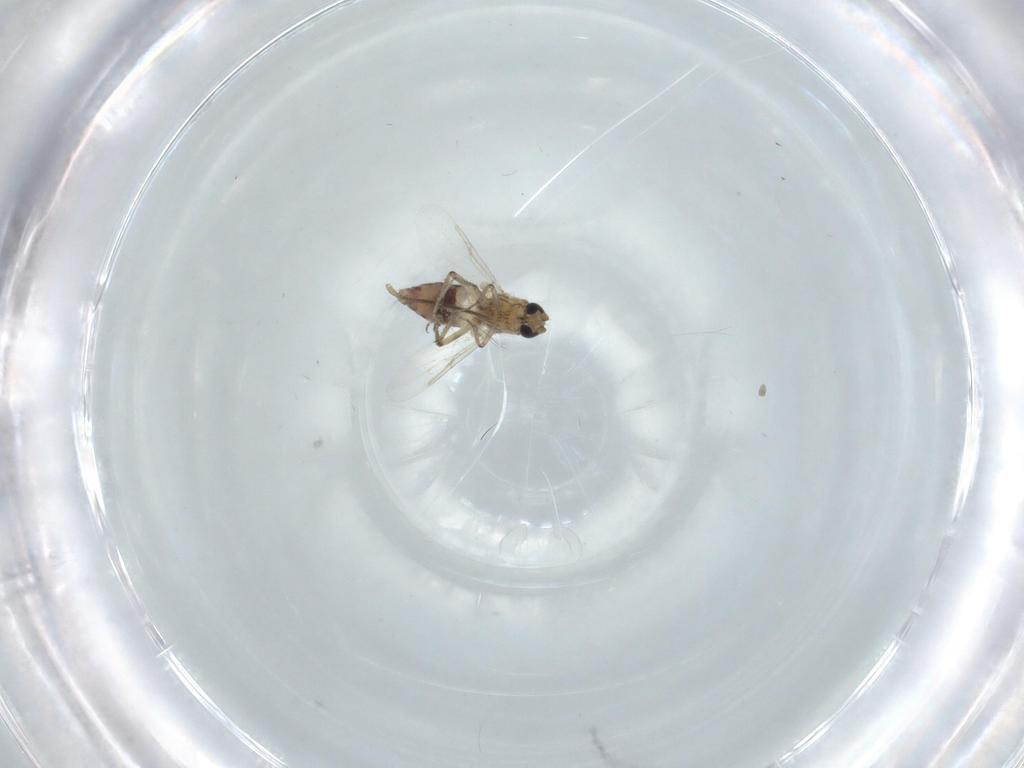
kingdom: Animalia
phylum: Arthropoda
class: Insecta
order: Diptera
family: Ceratopogonidae
